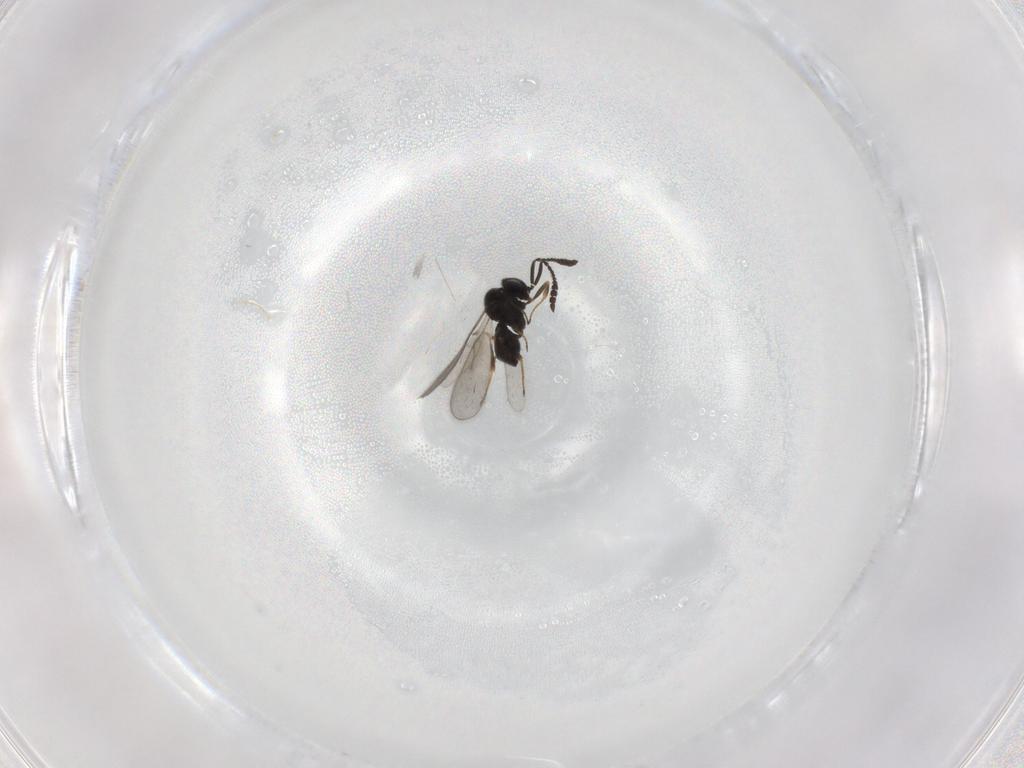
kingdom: Animalia
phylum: Arthropoda
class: Insecta
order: Hymenoptera
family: Scelionidae
